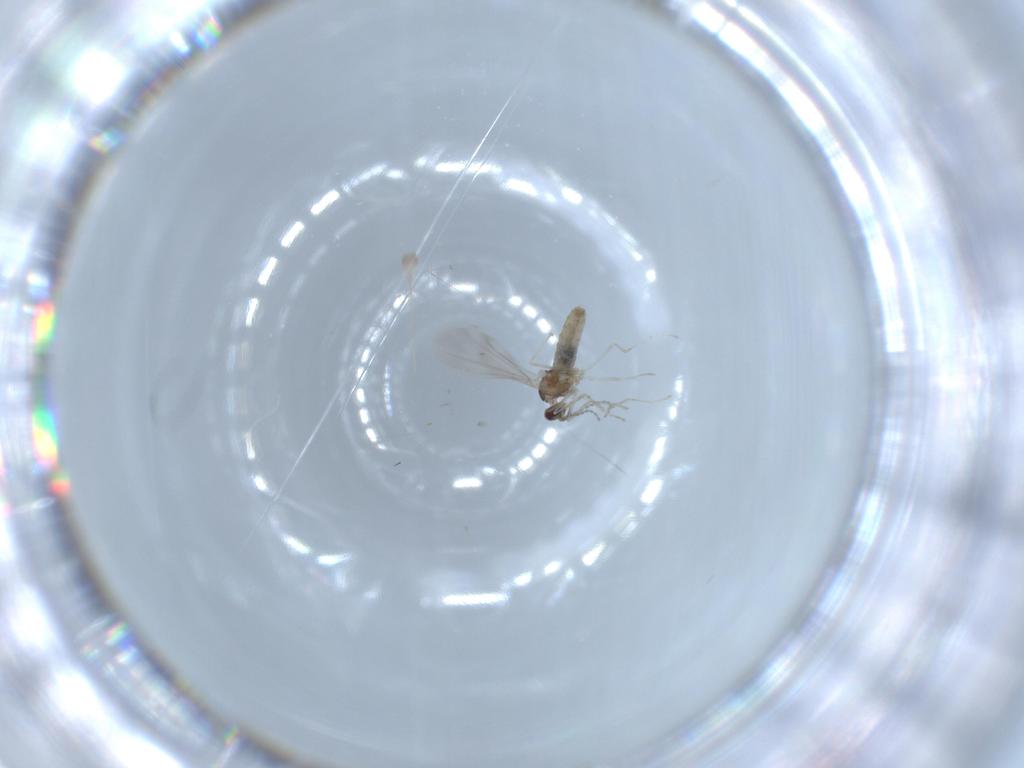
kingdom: Animalia
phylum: Arthropoda
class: Insecta
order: Diptera
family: Cecidomyiidae
